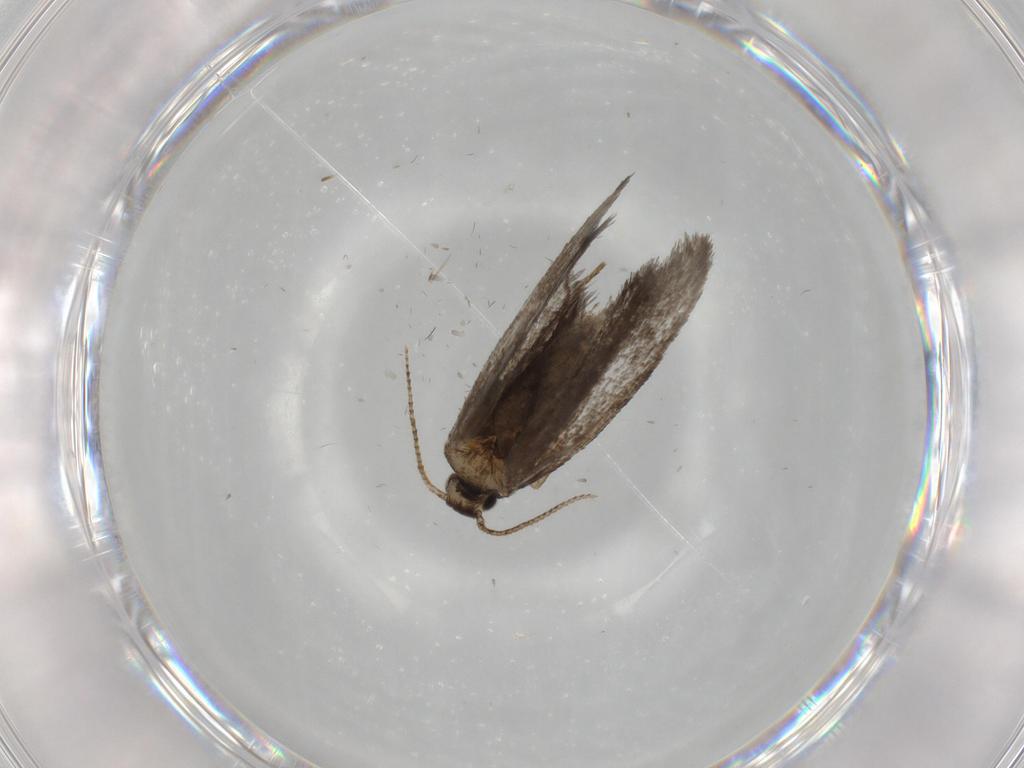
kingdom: Animalia
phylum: Arthropoda
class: Insecta
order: Lepidoptera
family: Psychidae
